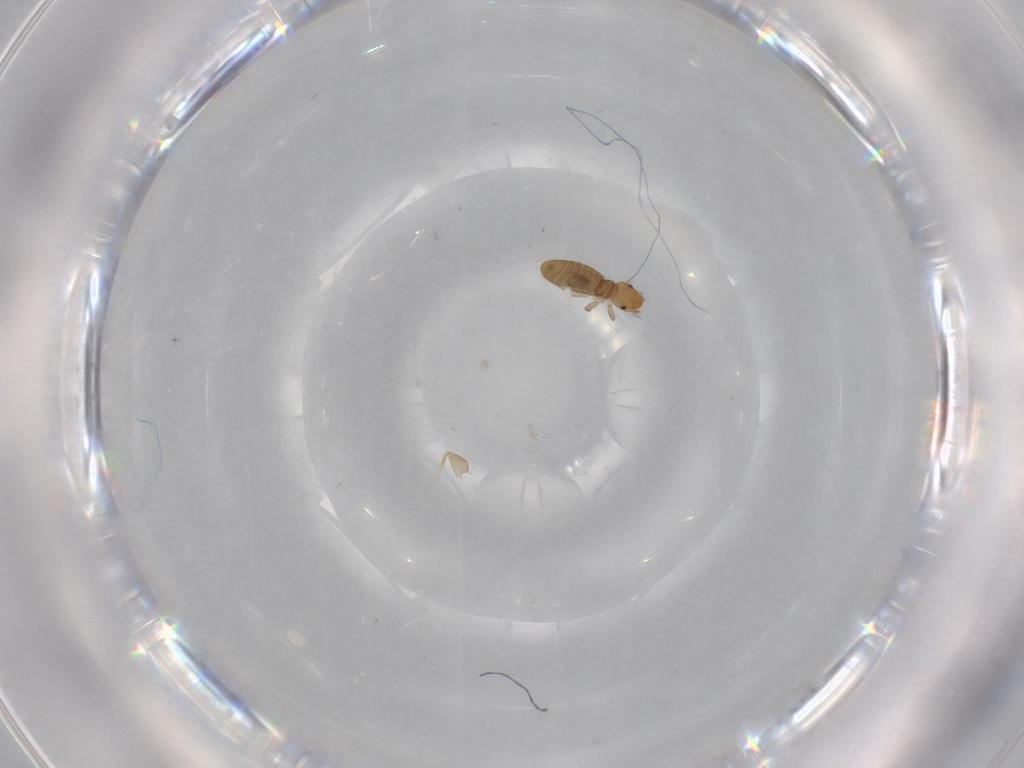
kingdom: Animalia
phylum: Arthropoda
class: Insecta
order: Psocodea
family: Liposcelididae
